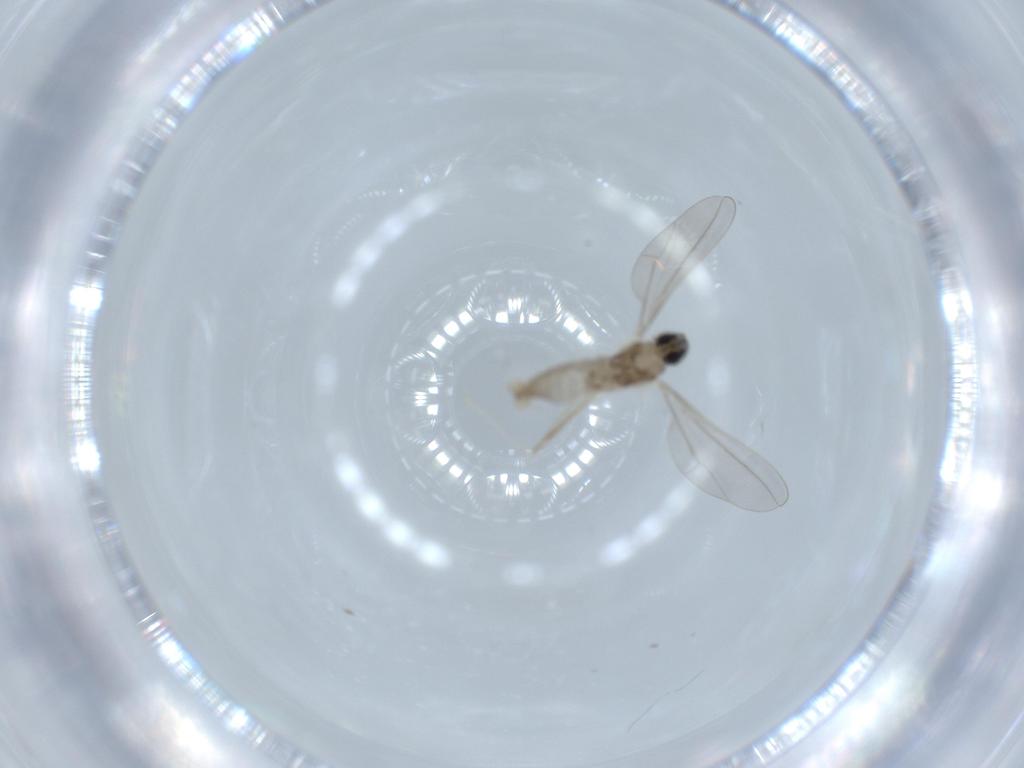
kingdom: Animalia
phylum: Arthropoda
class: Insecta
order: Diptera
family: Cecidomyiidae
